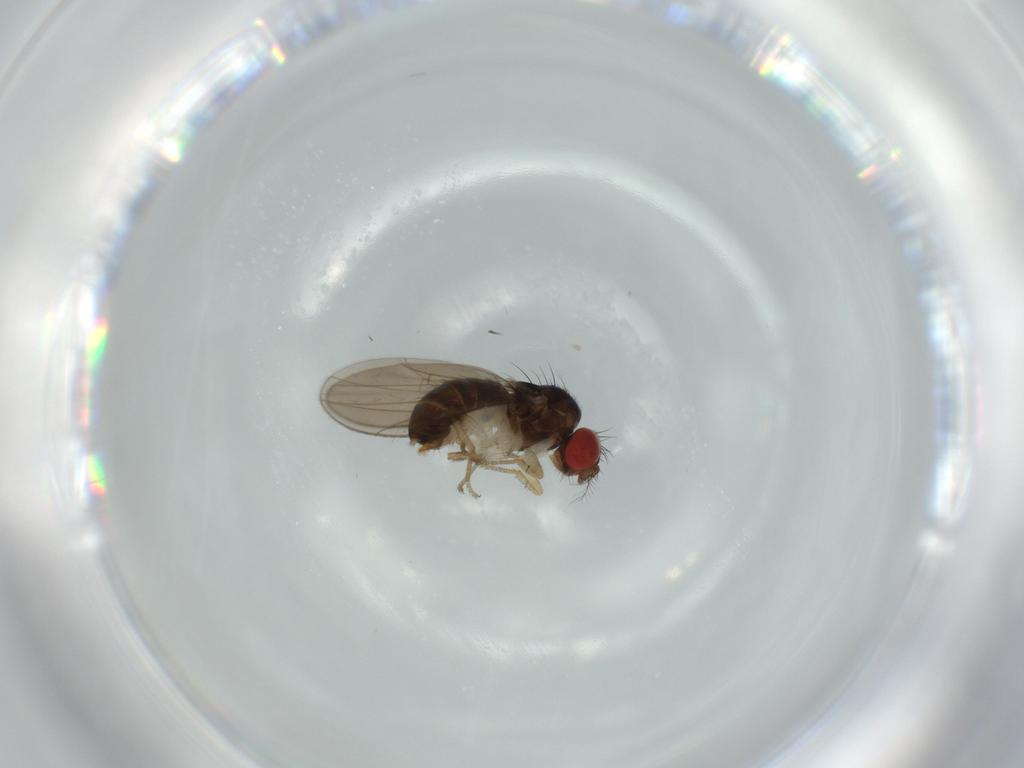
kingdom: Animalia
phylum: Arthropoda
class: Insecta
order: Diptera
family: Drosophilidae
